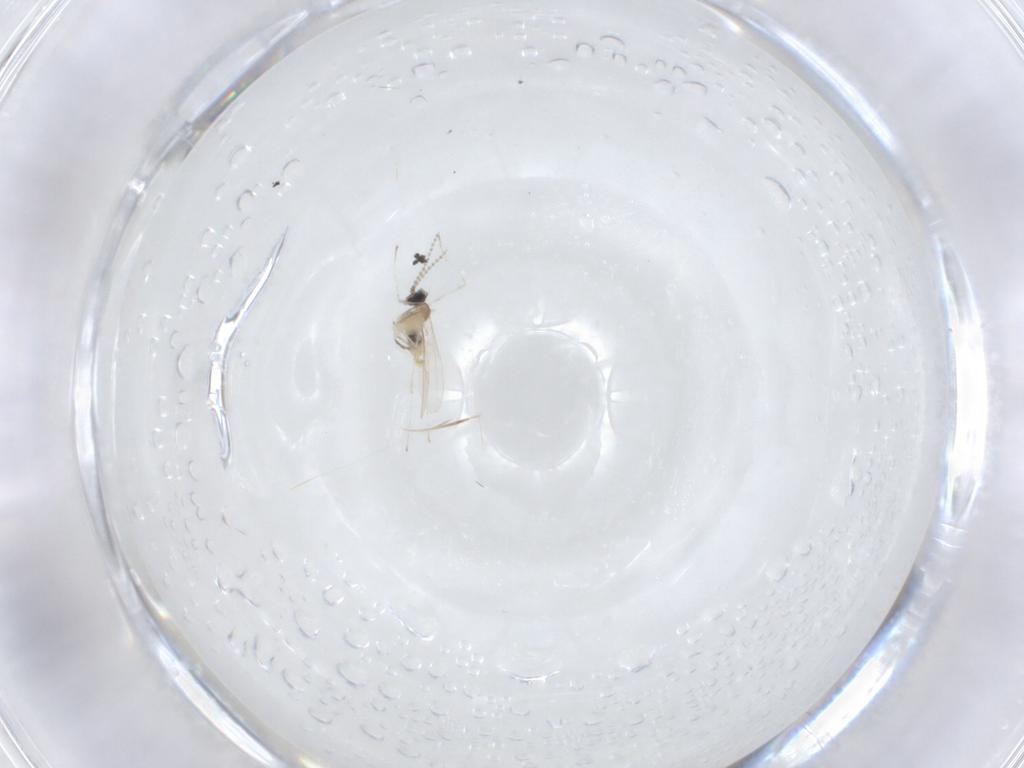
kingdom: Animalia
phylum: Arthropoda
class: Insecta
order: Diptera
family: Cecidomyiidae
